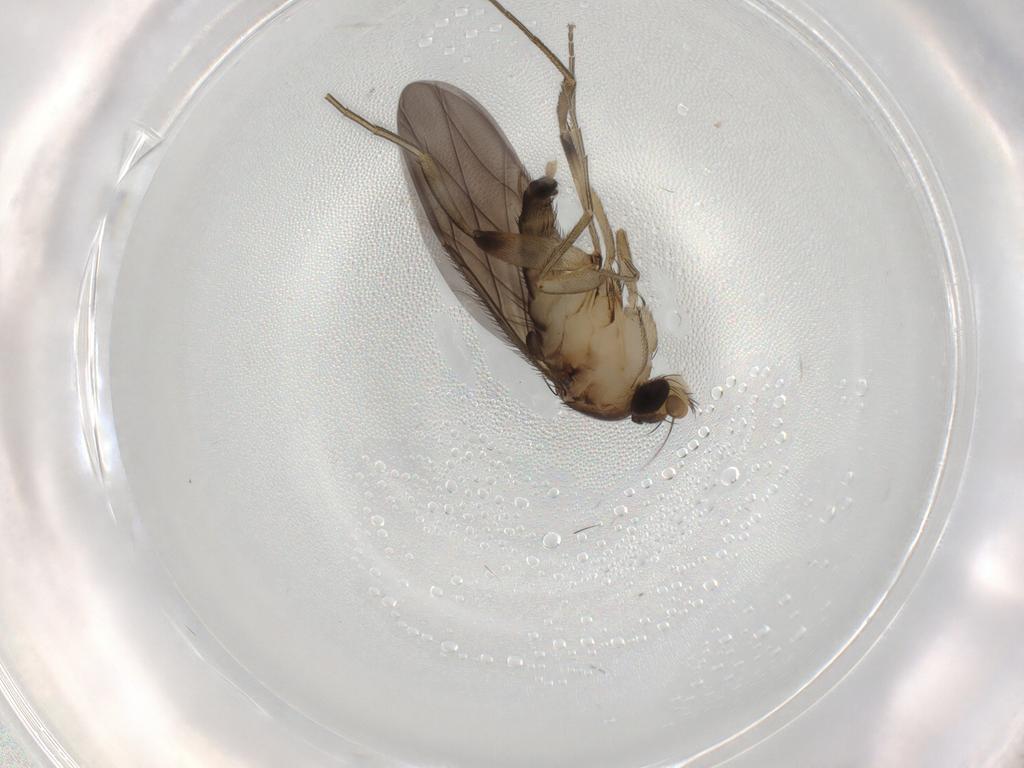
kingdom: Animalia
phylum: Arthropoda
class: Insecta
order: Diptera
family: Phoridae
